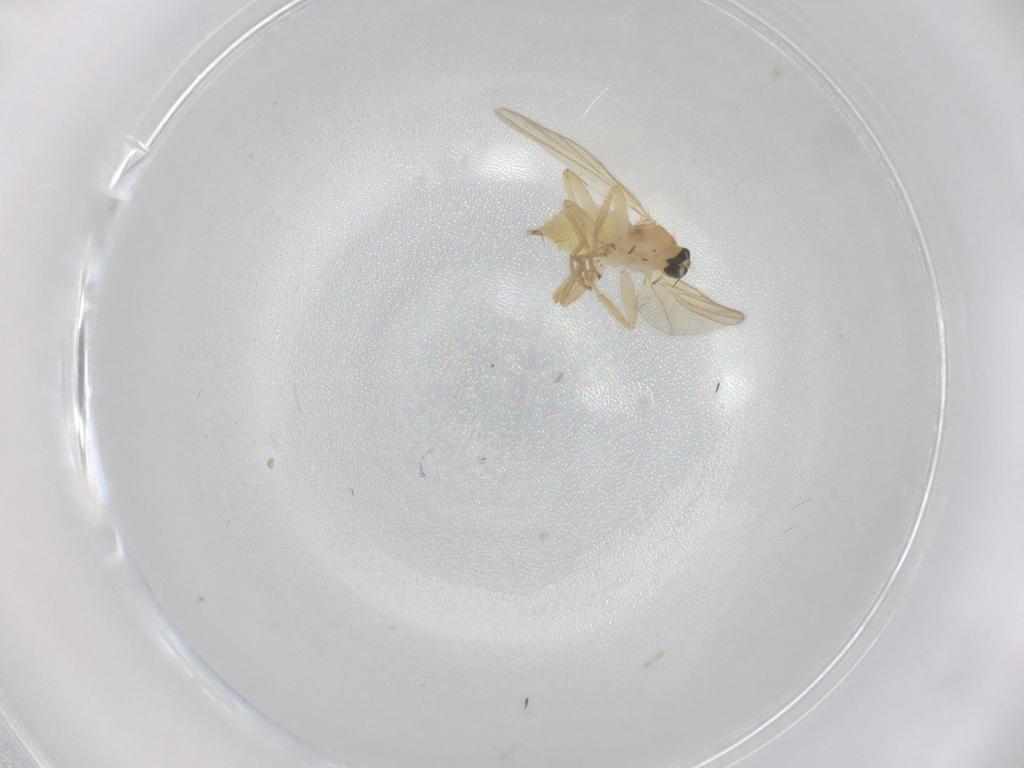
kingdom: Animalia
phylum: Arthropoda
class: Insecta
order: Diptera
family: Hybotidae
